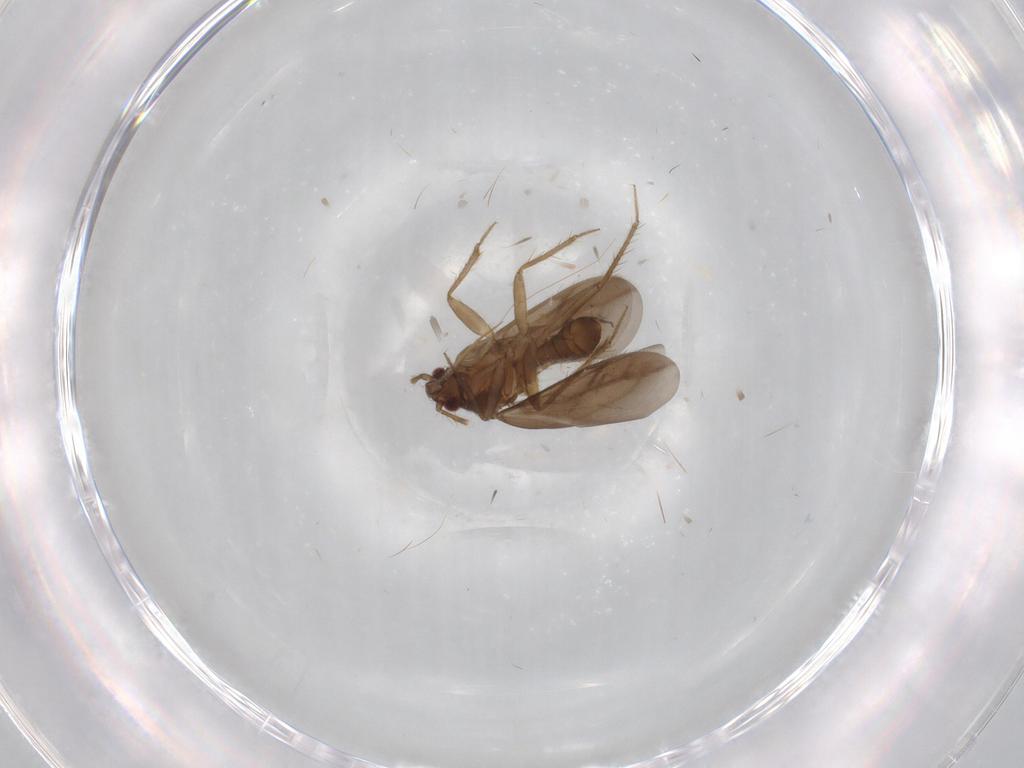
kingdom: Animalia
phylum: Arthropoda
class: Insecta
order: Hemiptera
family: Ceratocombidae
